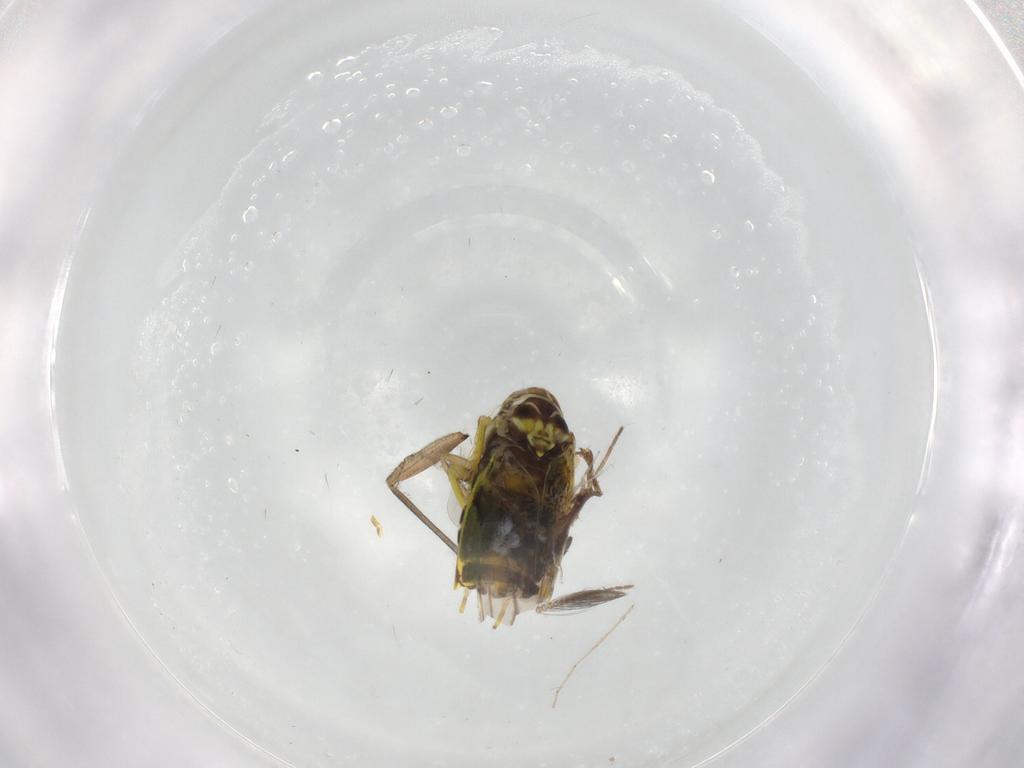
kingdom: Animalia
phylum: Arthropoda
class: Insecta
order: Hemiptera
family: Cicadellidae
